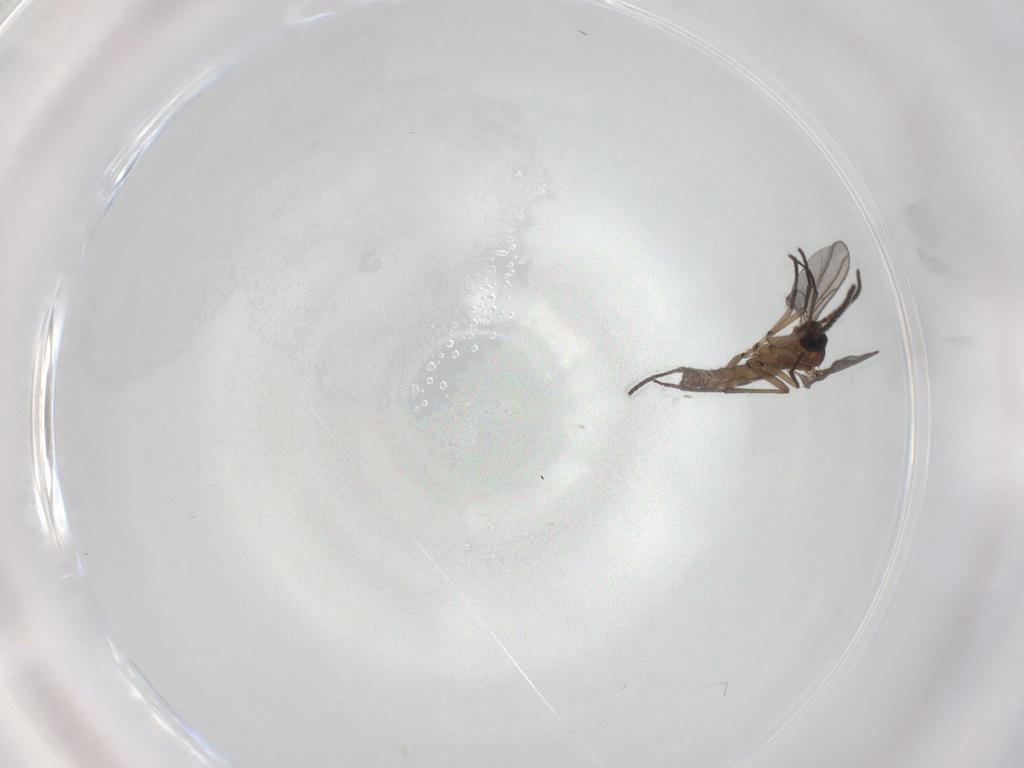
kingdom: Animalia
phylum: Arthropoda
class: Insecta
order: Diptera
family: Sciaridae
